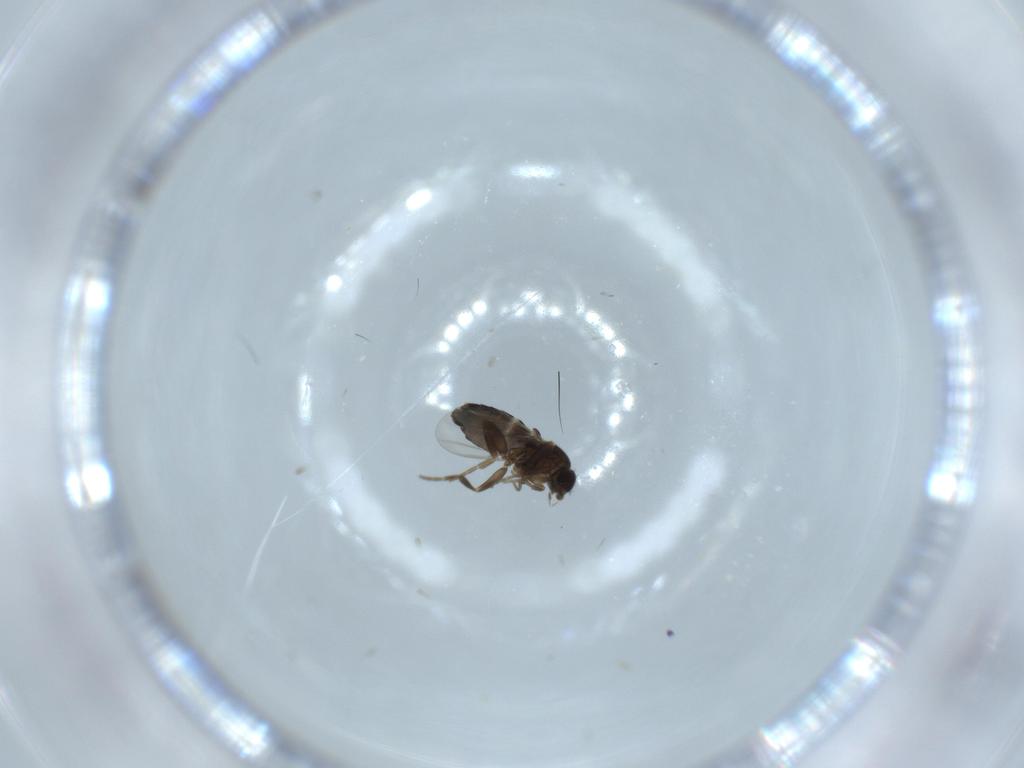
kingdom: Animalia
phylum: Arthropoda
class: Insecta
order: Diptera
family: Phoridae
